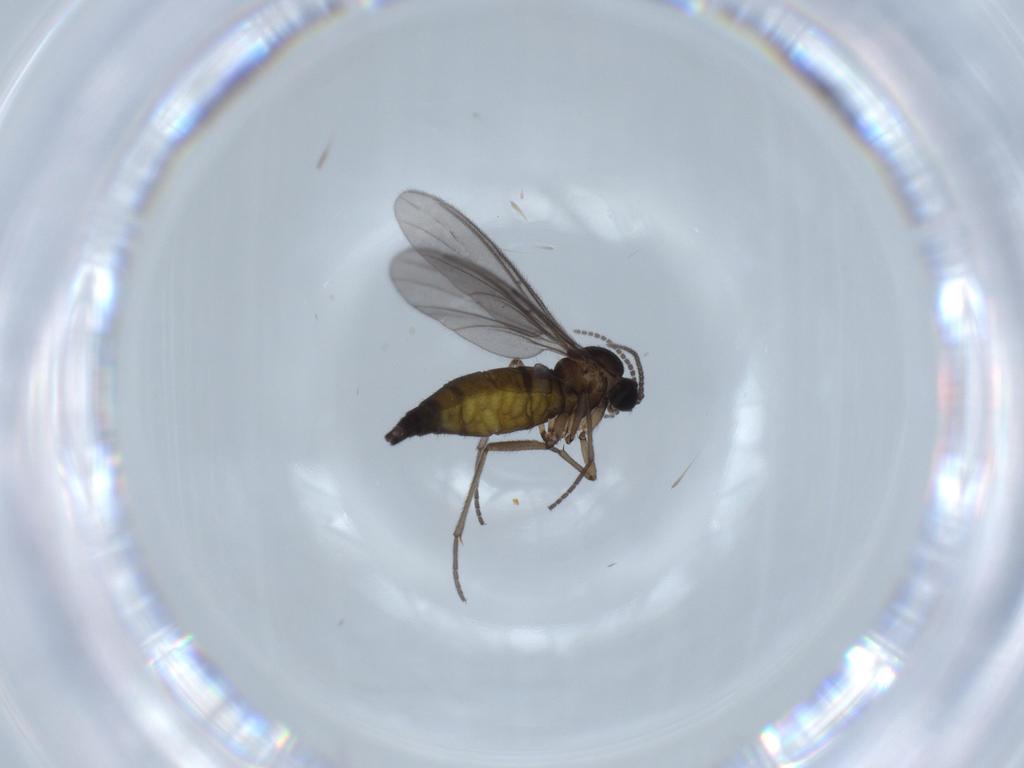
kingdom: Animalia
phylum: Arthropoda
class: Insecta
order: Diptera
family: Sciaridae
